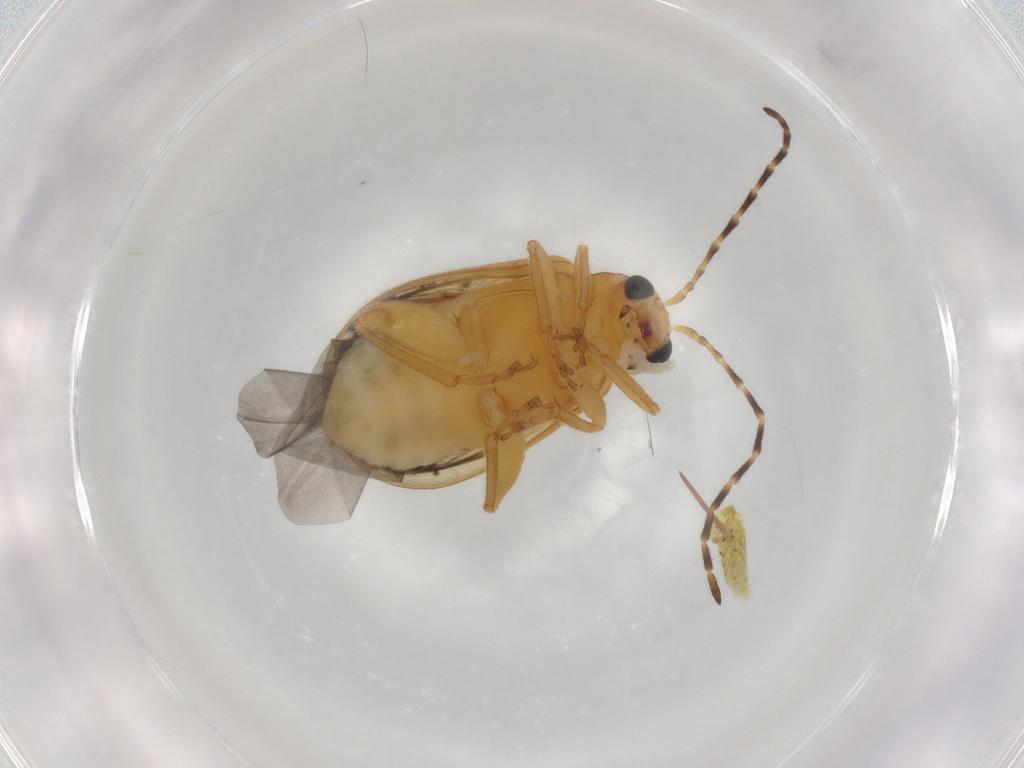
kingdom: Animalia
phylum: Arthropoda
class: Insecta
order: Coleoptera
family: Chrysomelidae
